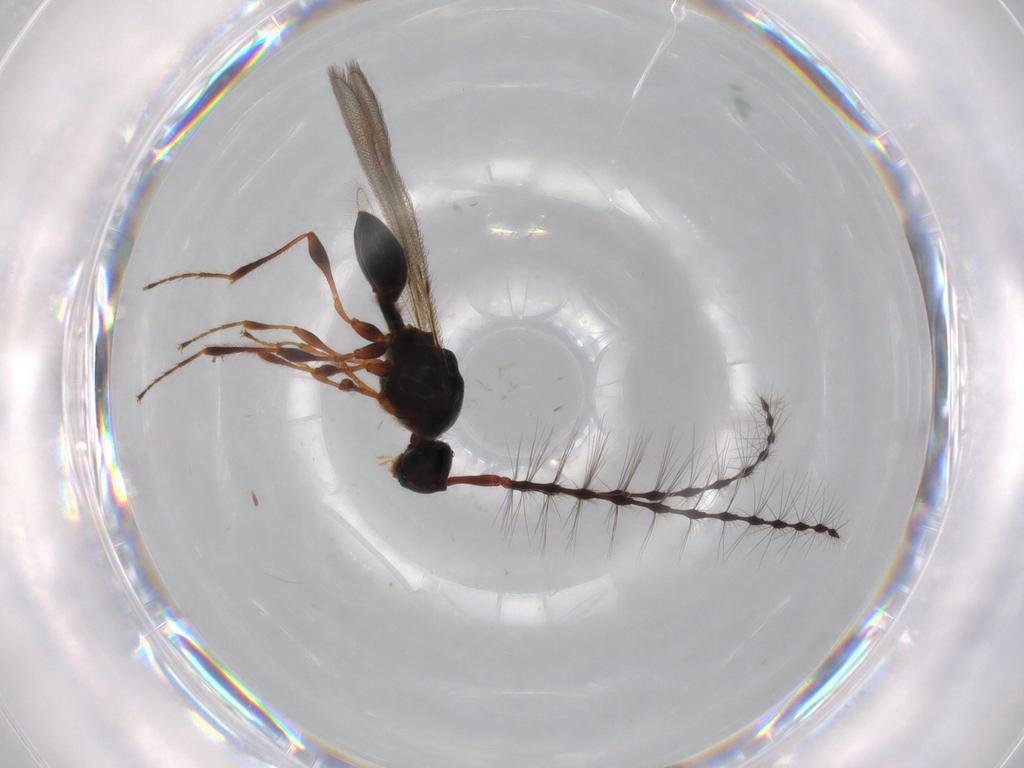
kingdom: Animalia
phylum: Arthropoda
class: Insecta
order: Hymenoptera
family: Diapriidae
